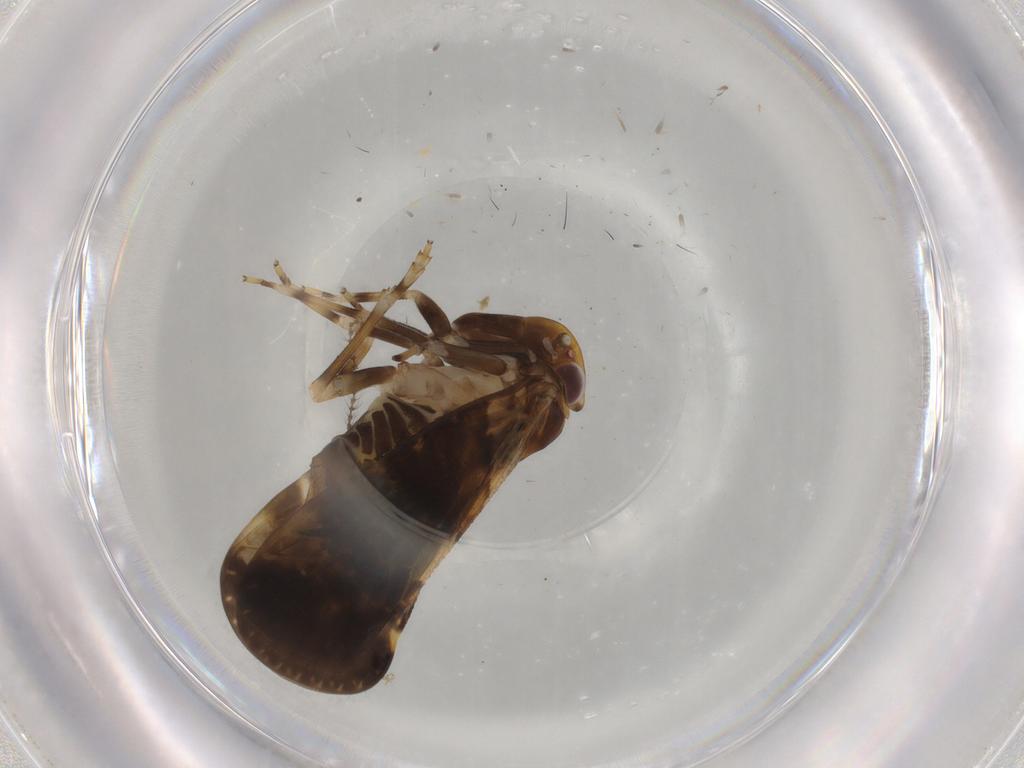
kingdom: Animalia
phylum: Arthropoda
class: Insecta
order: Hemiptera
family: Cixiidae
